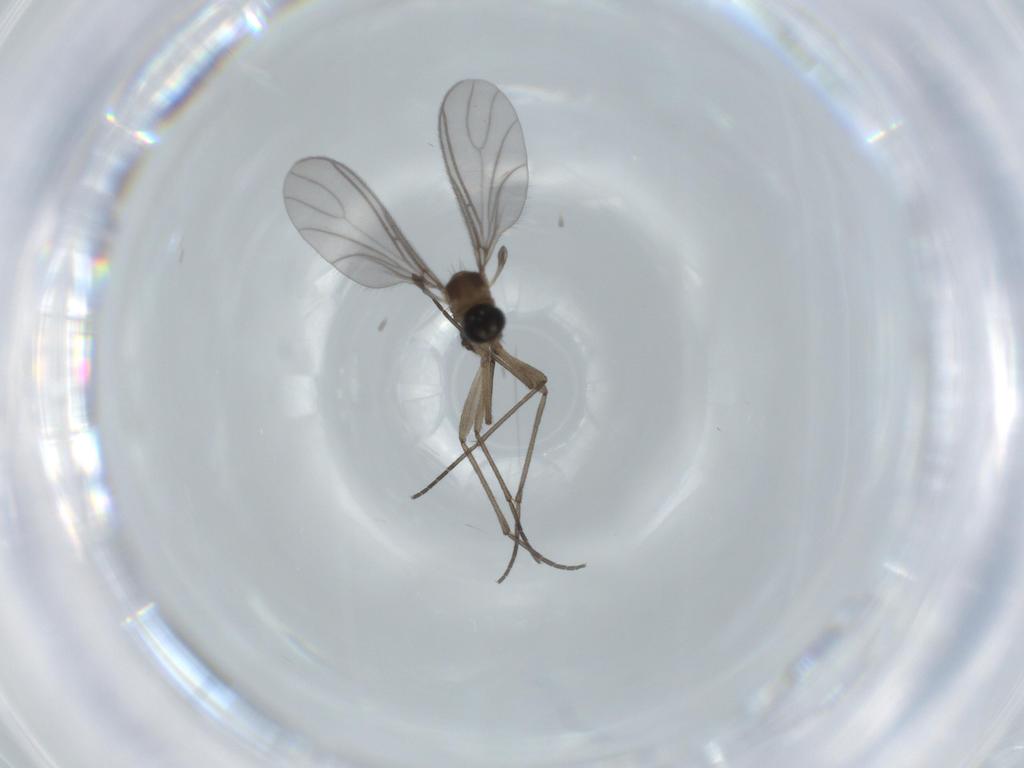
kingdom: Animalia
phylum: Arthropoda
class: Insecta
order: Diptera
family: Sciaridae
